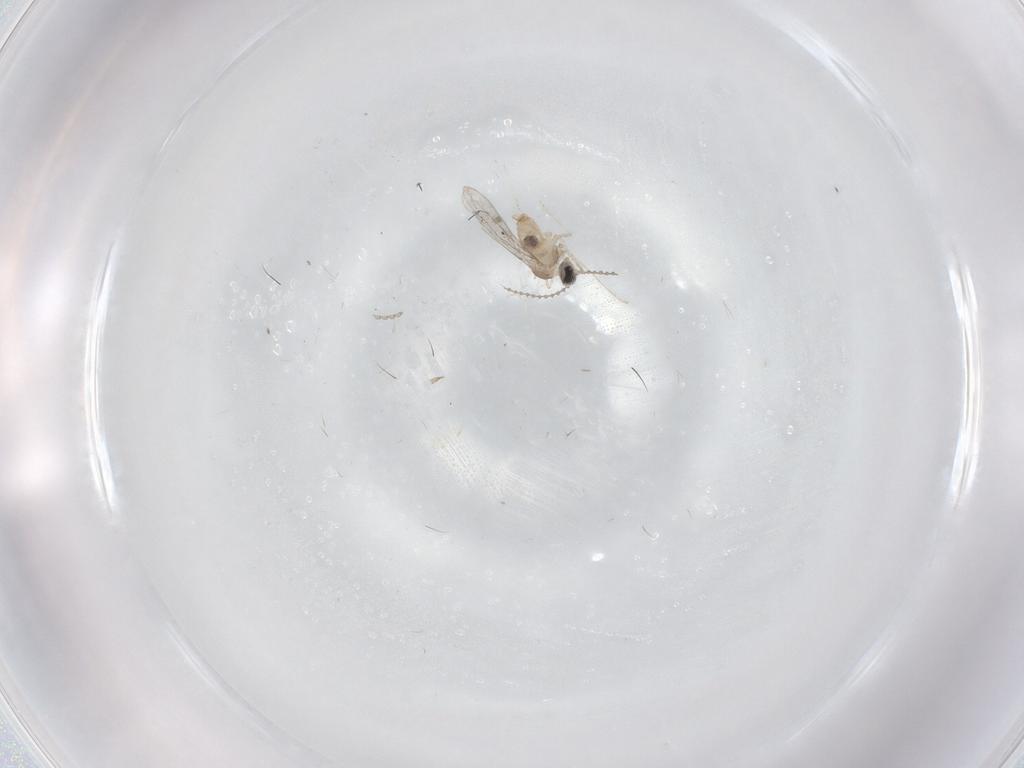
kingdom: Animalia
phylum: Arthropoda
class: Insecta
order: Diptera
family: Cecidomyiidae
